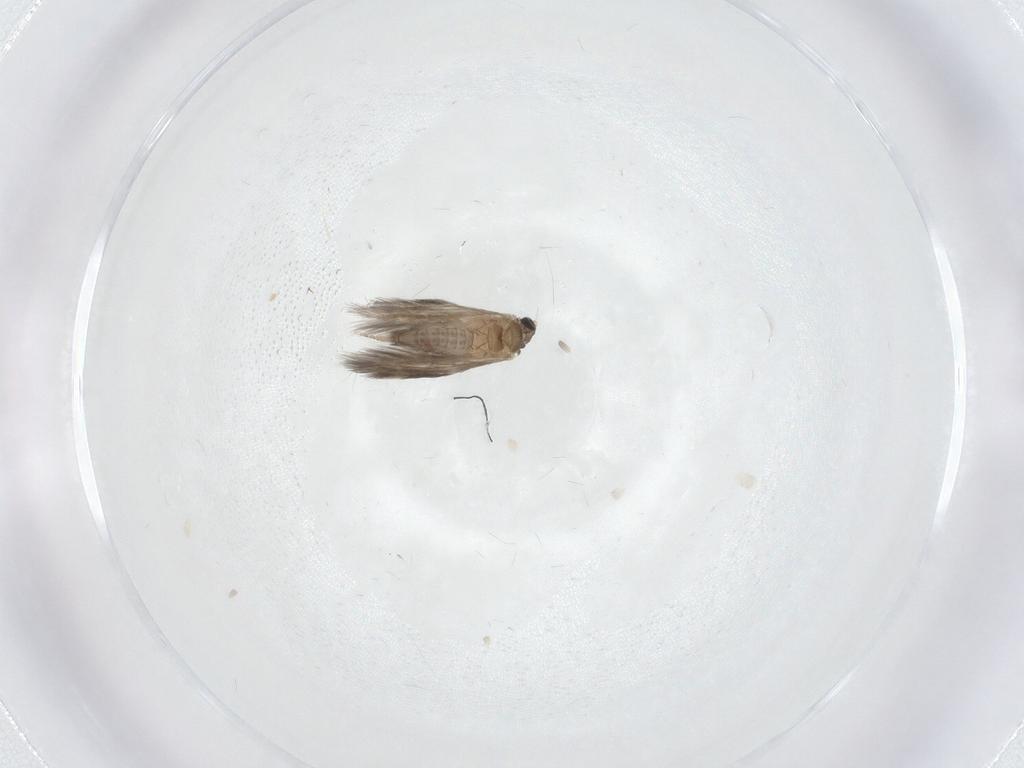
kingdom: Animalia
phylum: Arthropoda
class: Insecta
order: Trichoptera
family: Hydroptilidae
